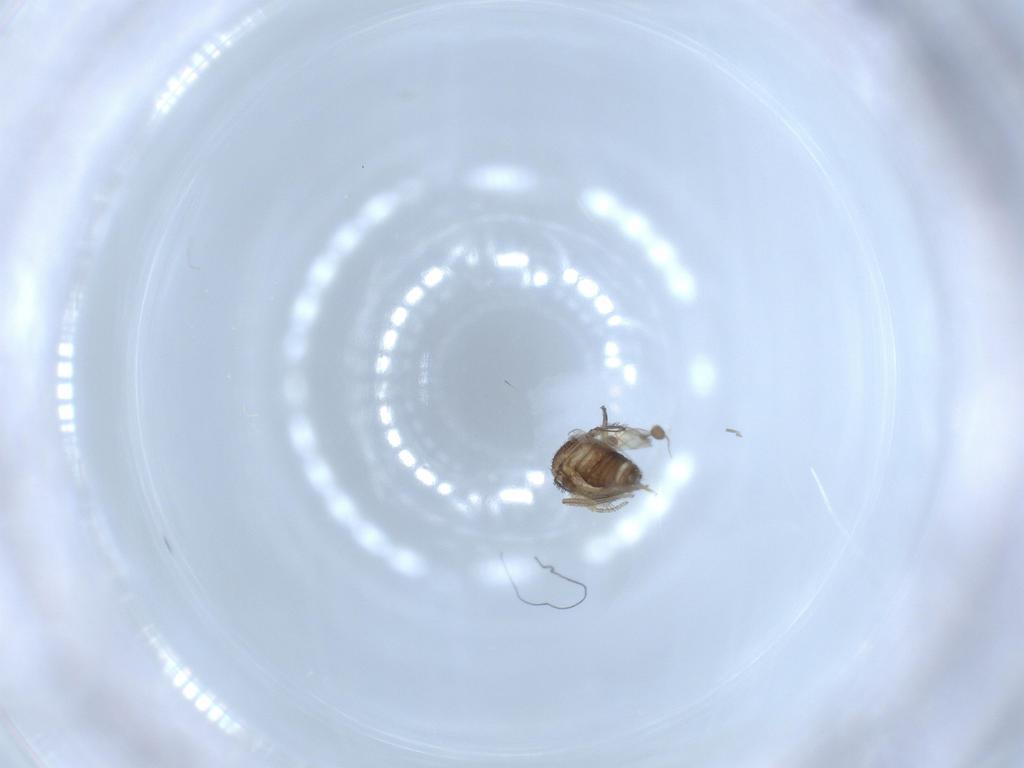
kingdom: Animalia
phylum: Arthropoda
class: Insecta
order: Diptera
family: Phoridae
